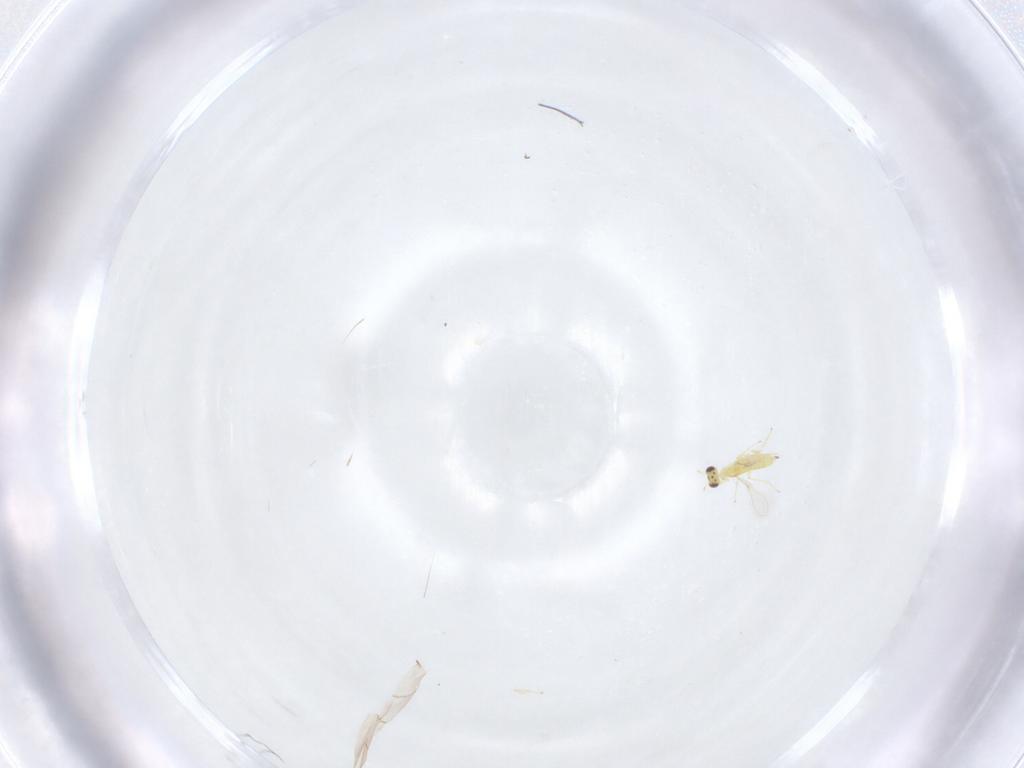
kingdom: Animalia
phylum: Arthropoda
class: Insecta
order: Hymenoptera
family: Mymaridae
